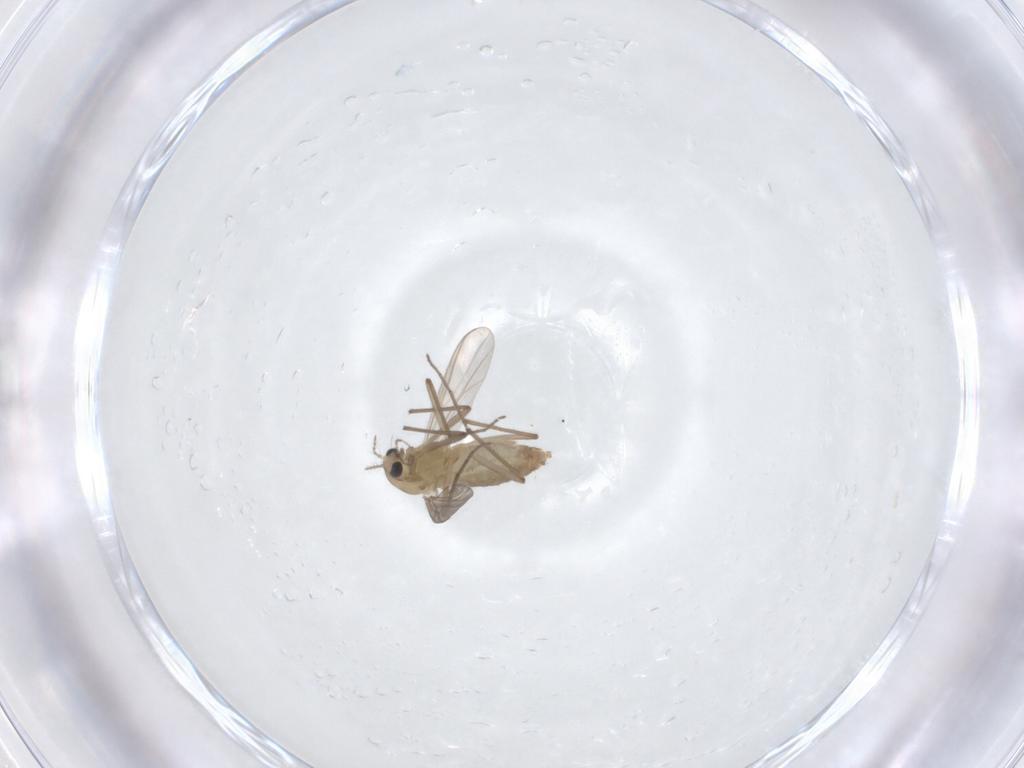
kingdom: Animalia
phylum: Arthropoda
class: Insecta
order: Diptera
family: Chironomidae
